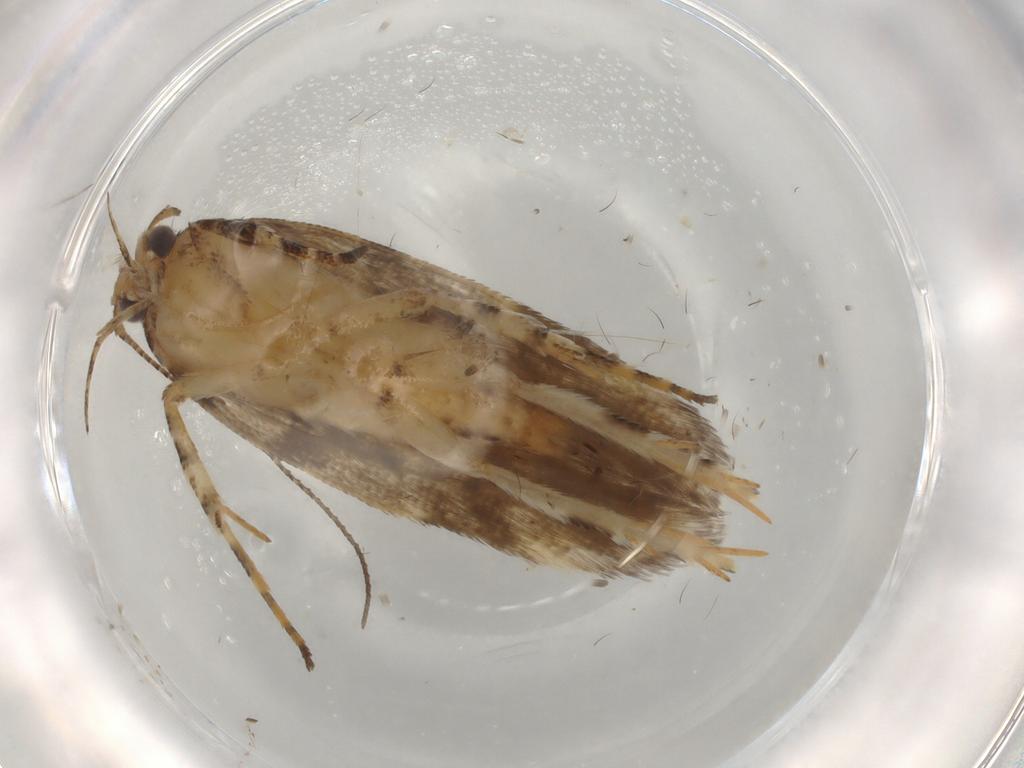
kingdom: Animalia
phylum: Arthropoda
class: Insecta
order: Lepidoptera
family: Gelechiidae
